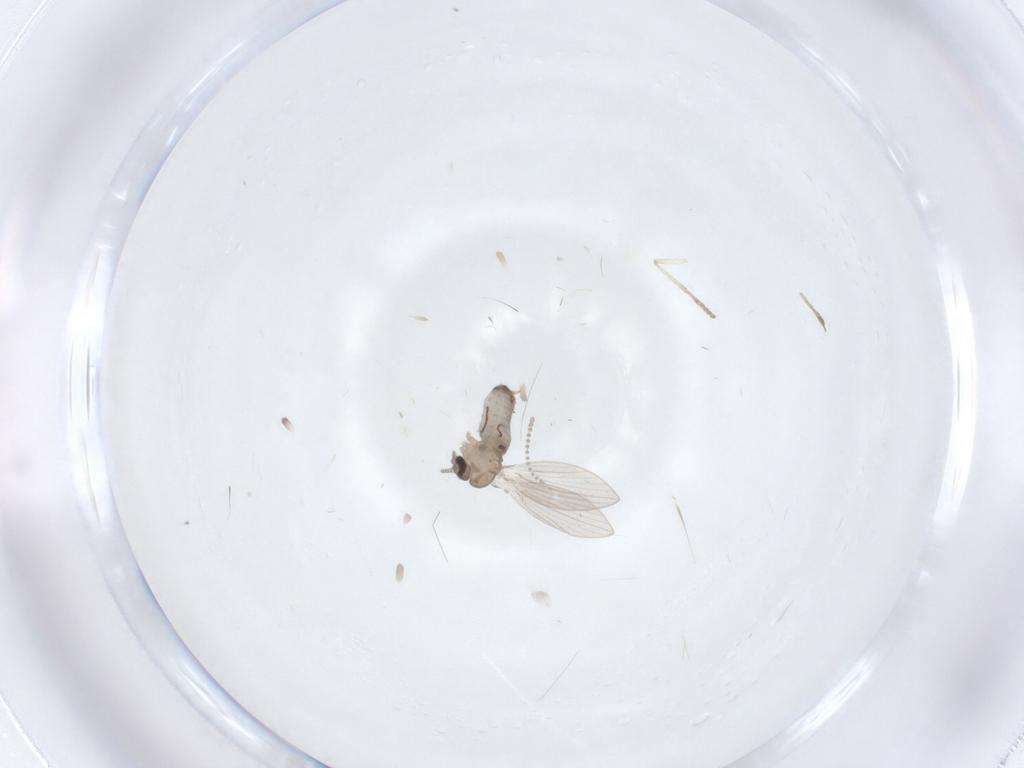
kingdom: Animalia
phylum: Arthropoda
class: Insecta
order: Diptera
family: Psychodidae
